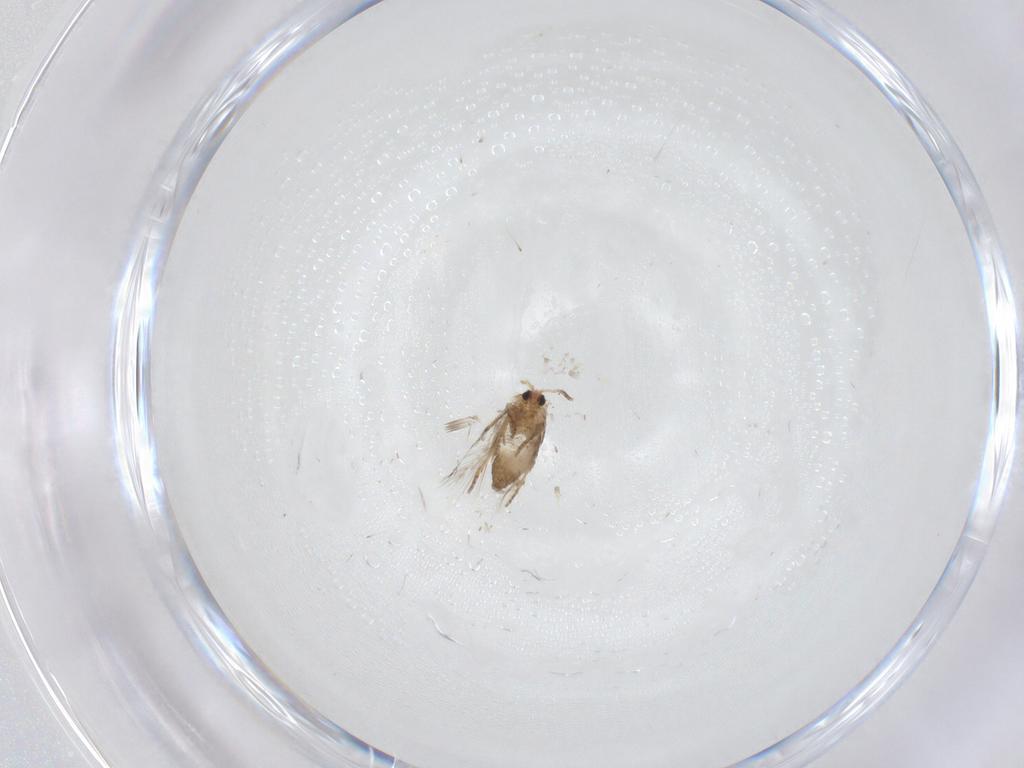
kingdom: Animalia
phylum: Arthropoda
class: Insecta
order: Lepidoptera
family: Nepticulidae
